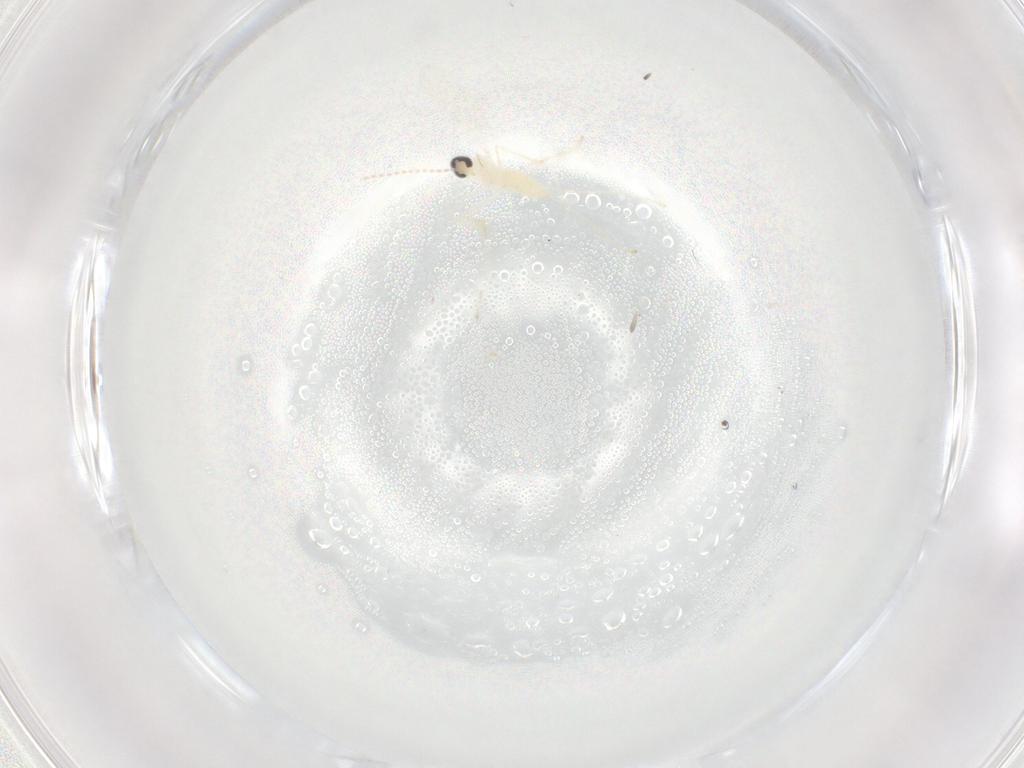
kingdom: Animalia
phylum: Arthropoda
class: Insecta
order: Diptera
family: Cecidomyiidae
